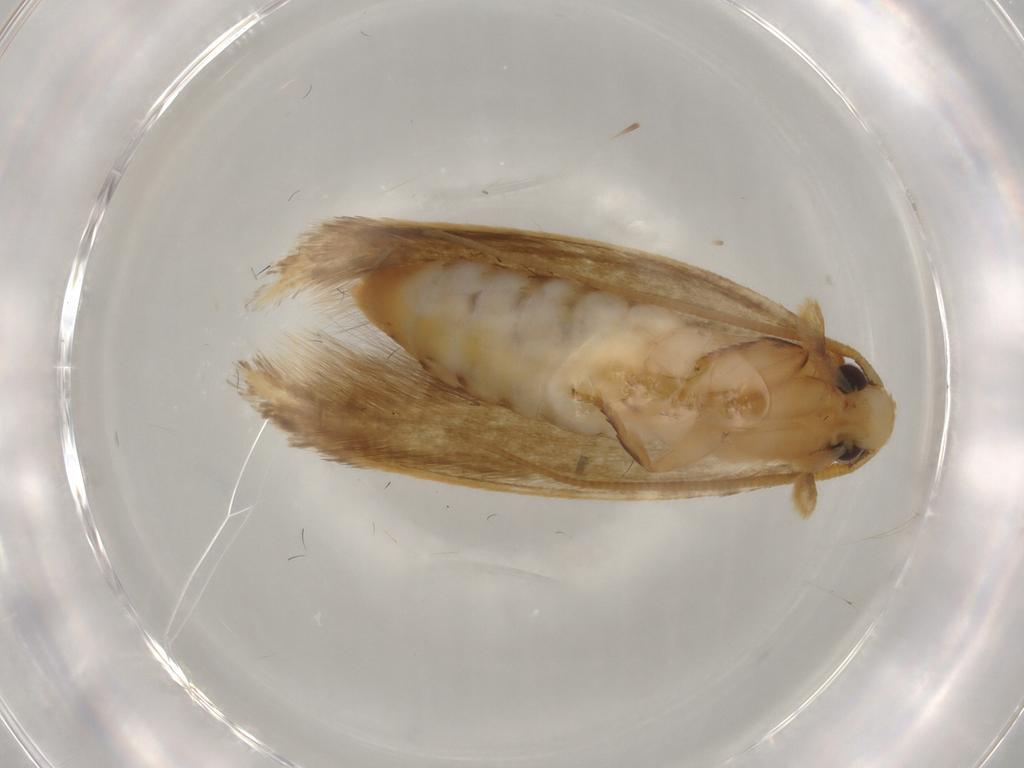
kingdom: Animalia
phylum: Arthropoda
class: Insecta
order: Lepidoptera
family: Tineidae
